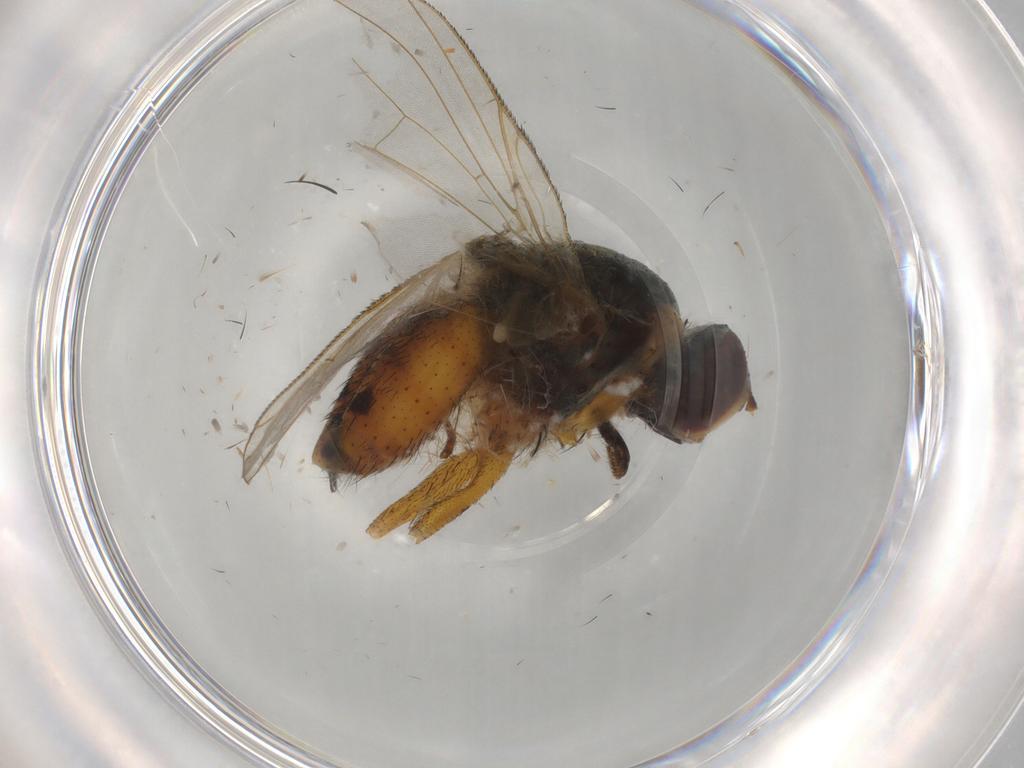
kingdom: Animalia
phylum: Arthropoda
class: Insecta
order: Diptera
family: Muscidae
